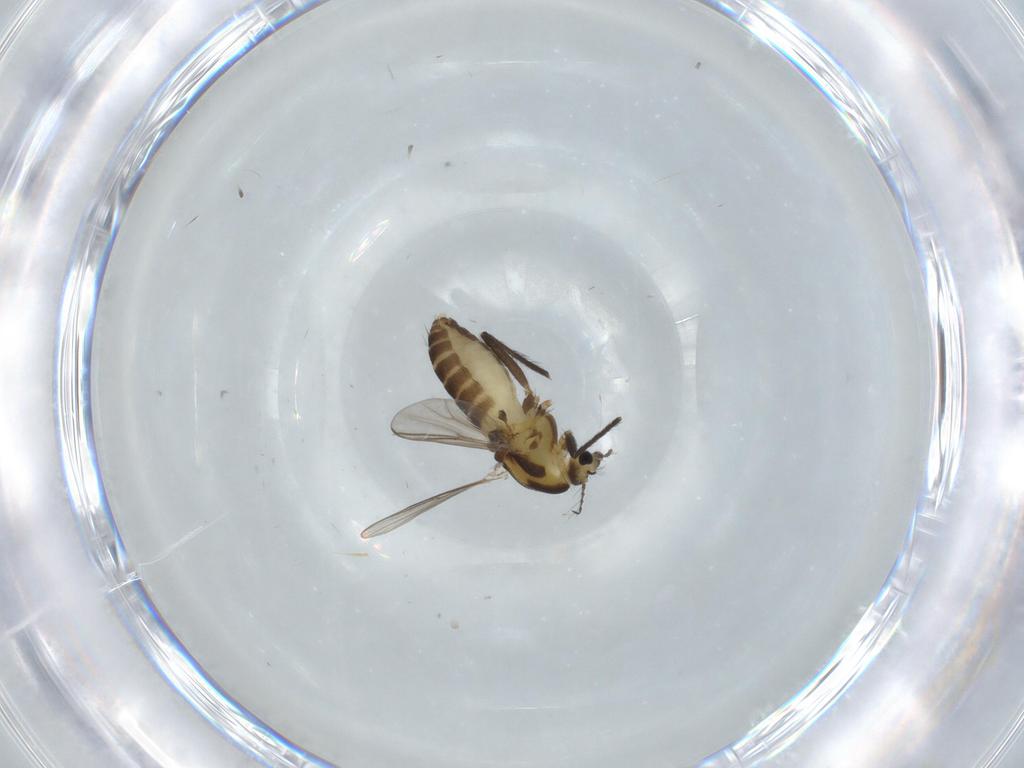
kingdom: Animalia
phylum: Arthropoda
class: Insecta
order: Diptera
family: Chironomidae
